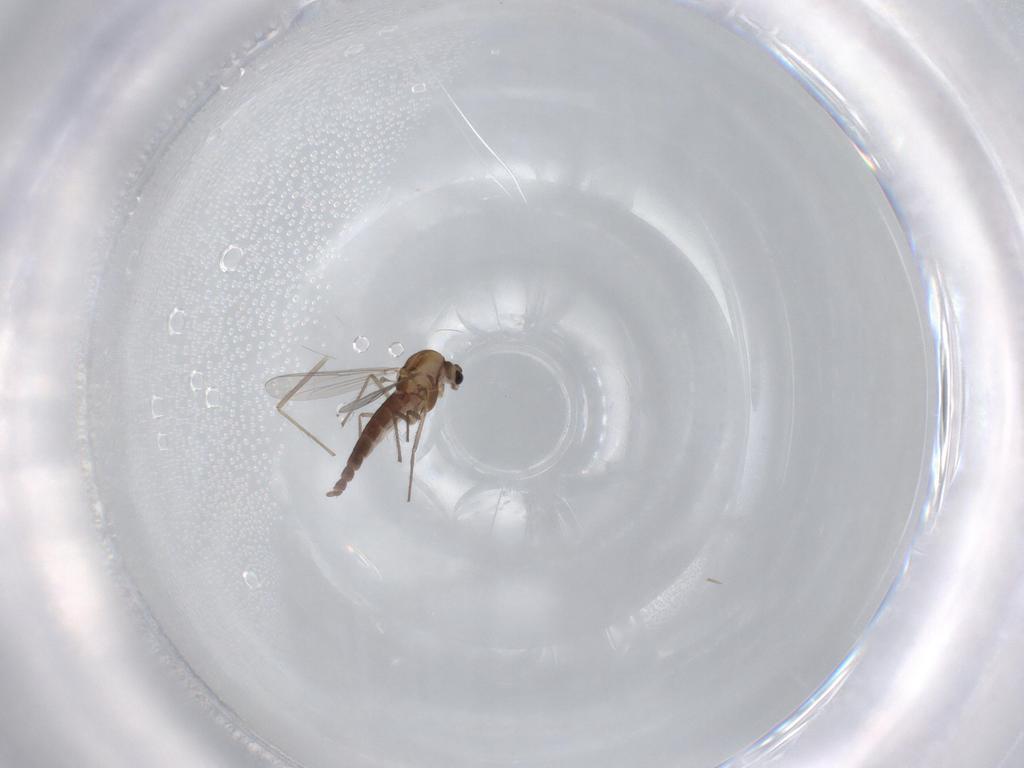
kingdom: Animalia
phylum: Arthropoda
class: Insecta
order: Diptera
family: Chironomidae
